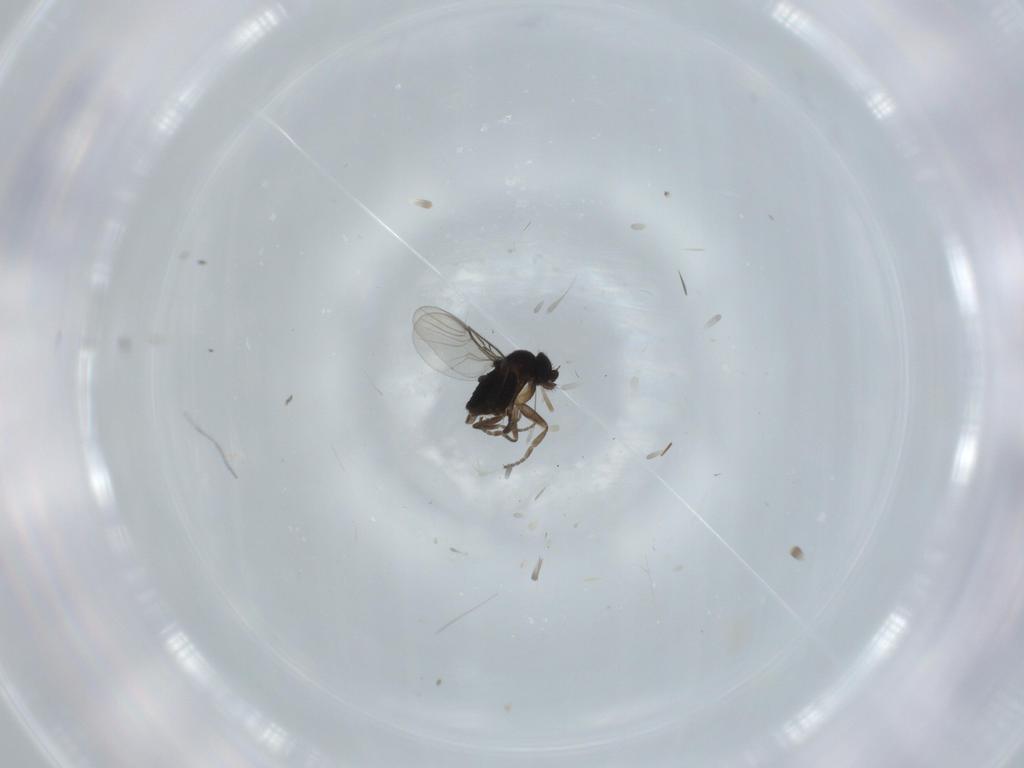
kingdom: Animalia
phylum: Arthropoda
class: Insecta
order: Diptera
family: Phoridae
